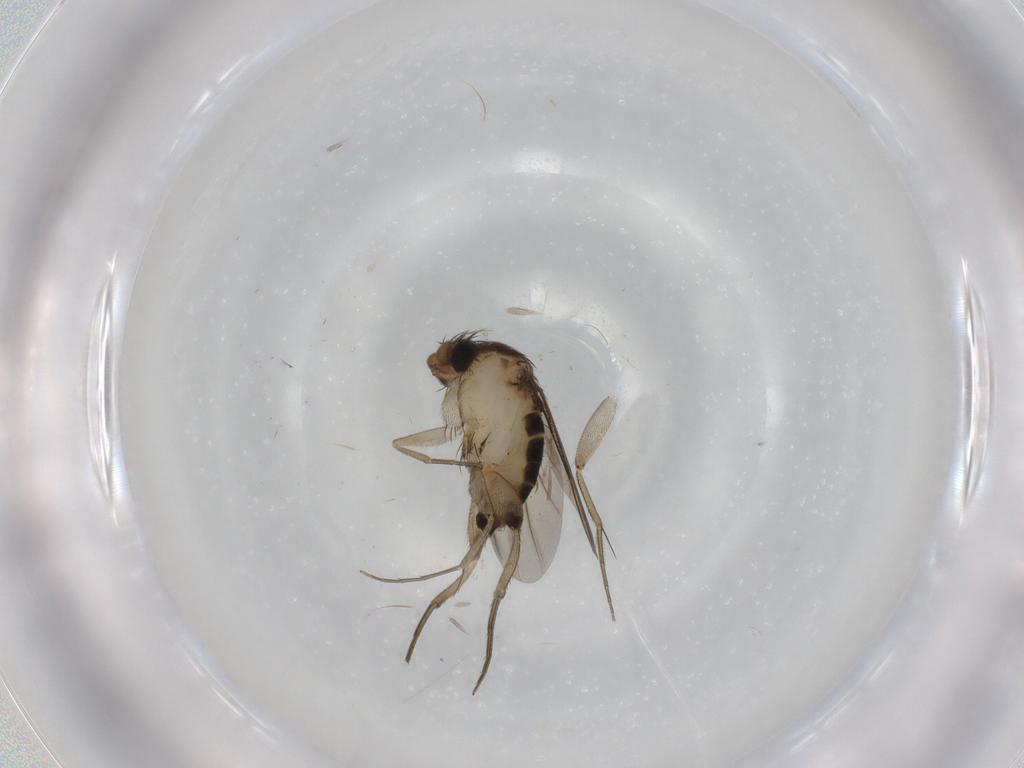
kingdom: Animalia
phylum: Arthropoda
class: Insecta
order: Diptera
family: Phoridae
